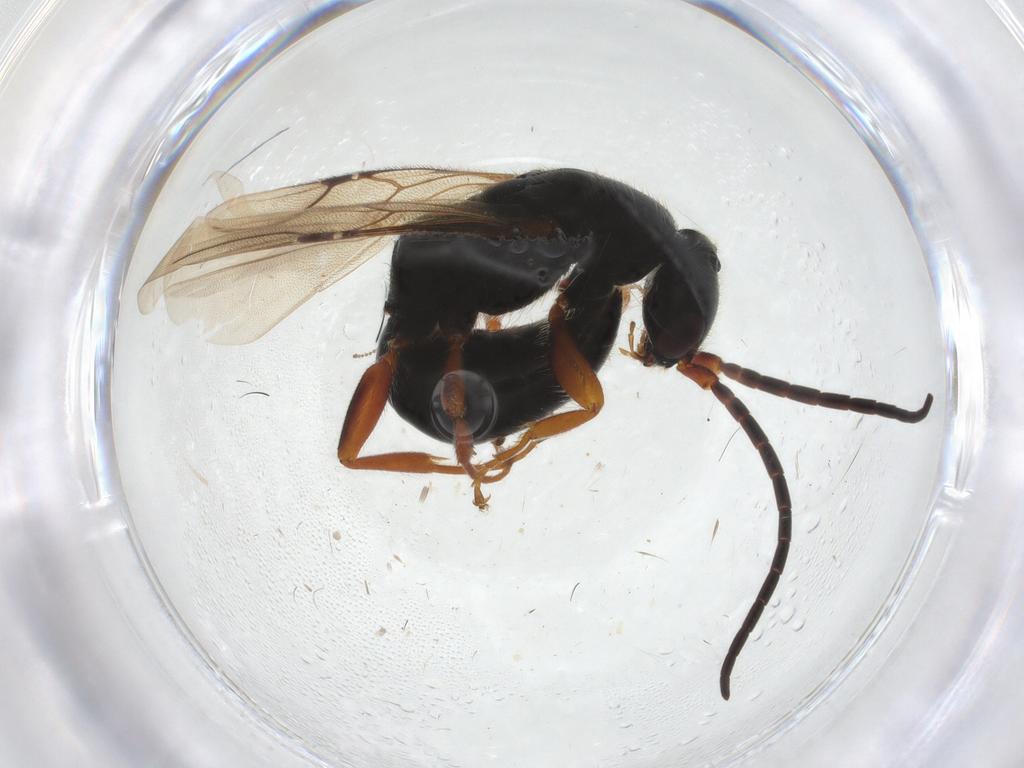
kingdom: Animalia
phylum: Arthropoda
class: Insecta
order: Hymenoptera
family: Bethylidae
